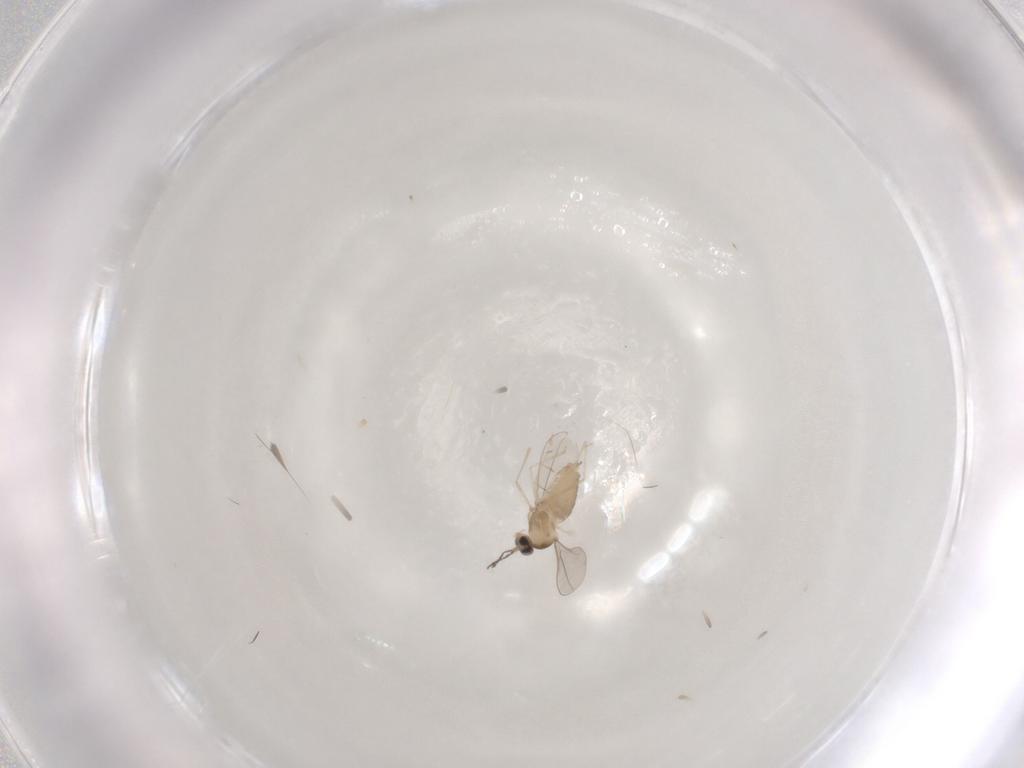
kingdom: Animalia
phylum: Arthropoda
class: Insecta
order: Diptera
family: Cecidomyiidae
